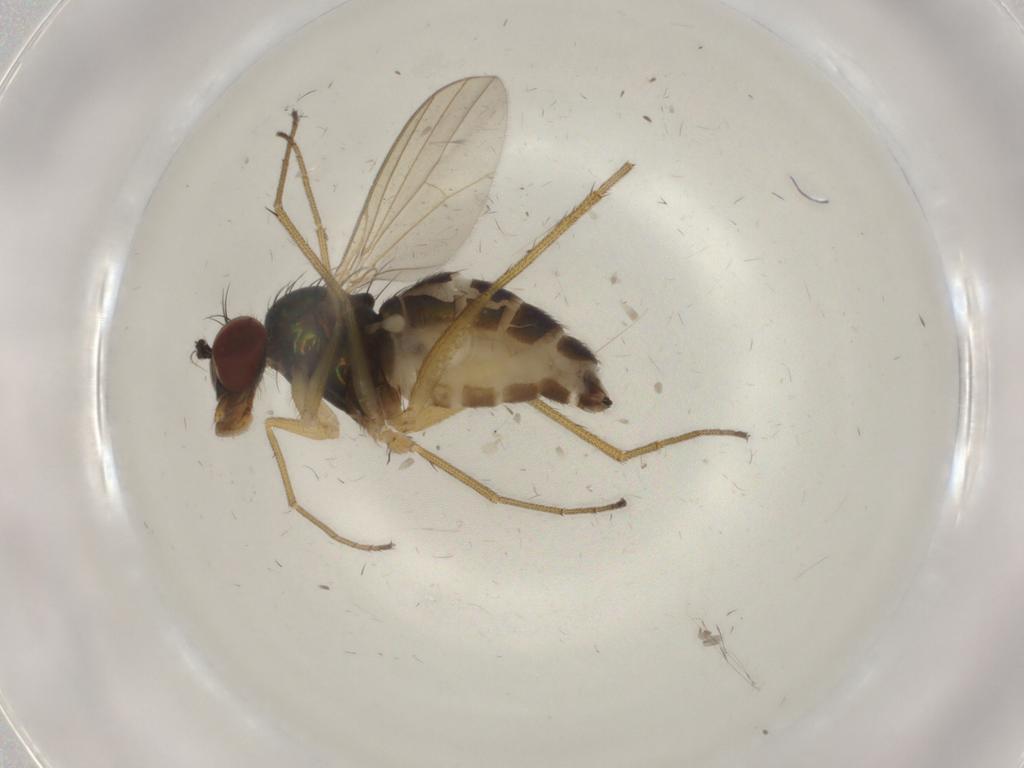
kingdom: Animalia
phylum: Arthropoda
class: Insecta
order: Diptera
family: Dolichopodidae
